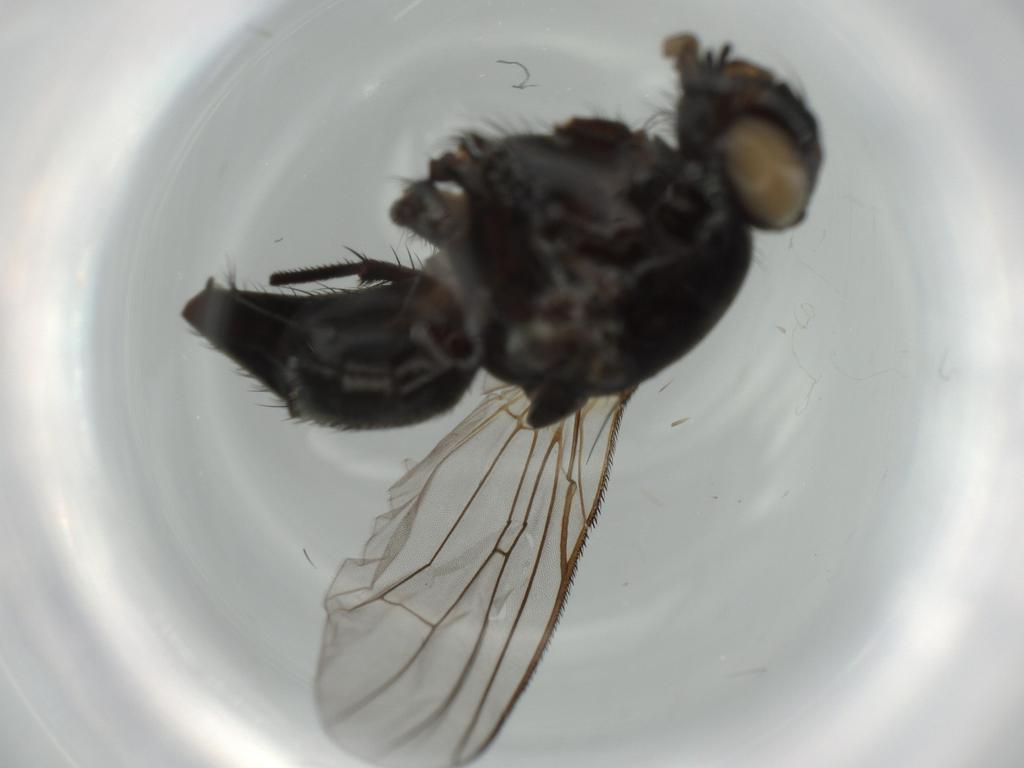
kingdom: Animalia
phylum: Arthropoda
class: Insecta
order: Diptera
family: Muscidae
